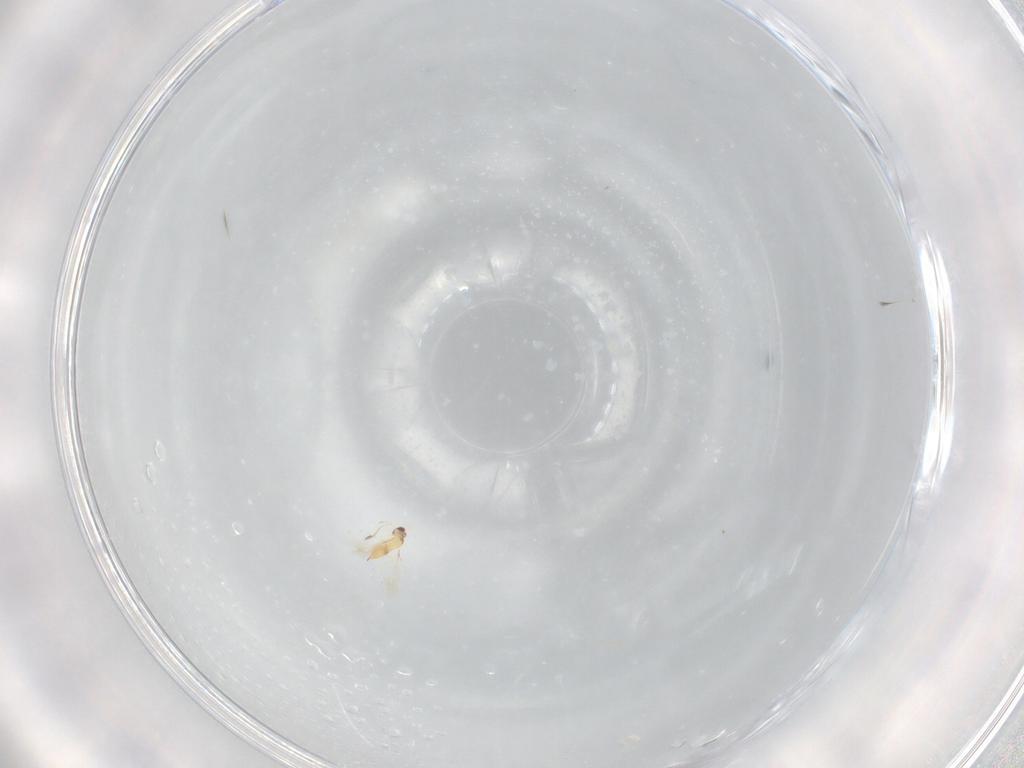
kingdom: Animalia
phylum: Arthropoda
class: Insecta
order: Hymenoptera
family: Mymaridae
